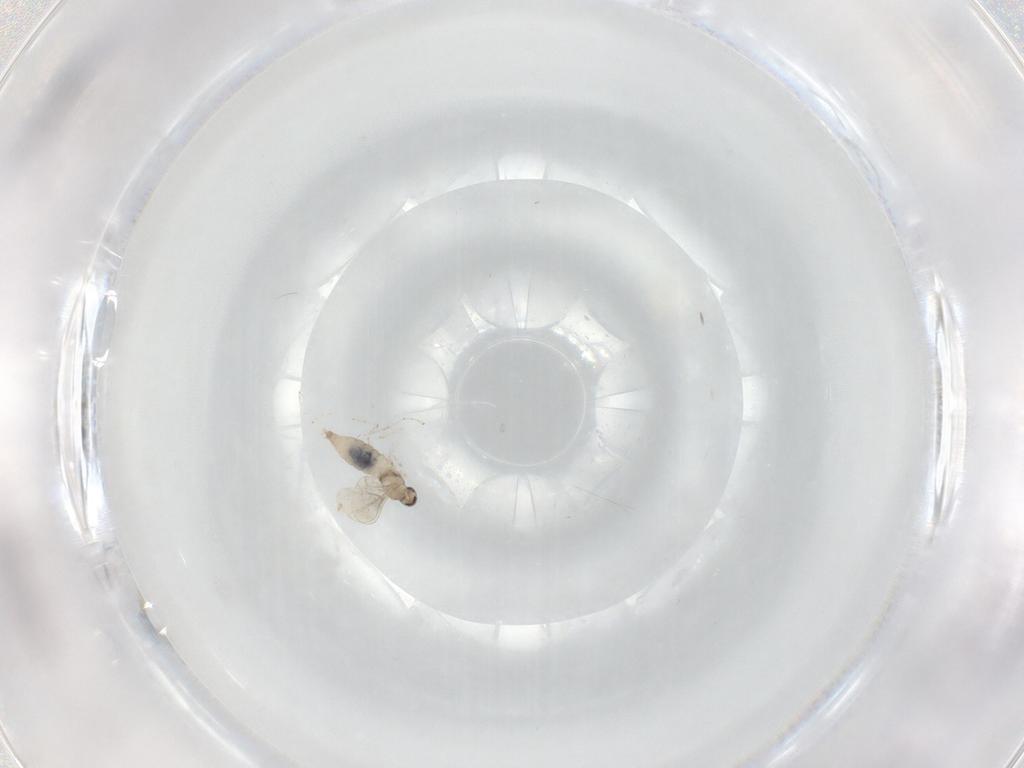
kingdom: Animalia
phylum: Arthropoda
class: Insecta
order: Diptera
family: Cecidomyiidae
